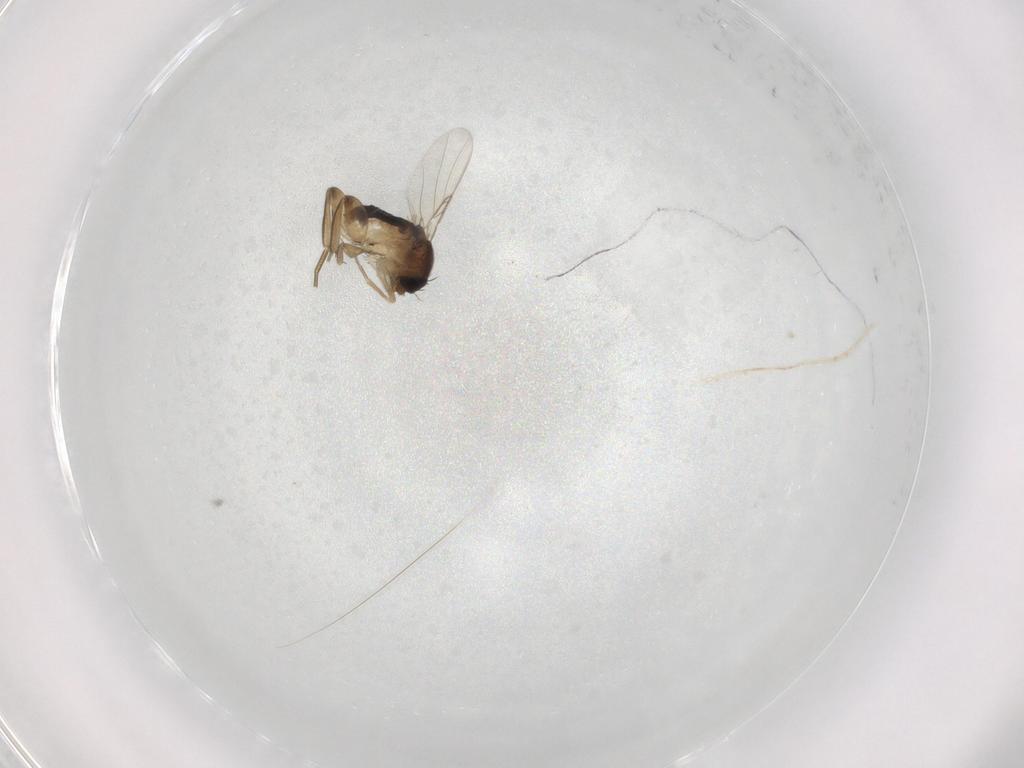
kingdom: Animalia
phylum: Arthropoda
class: Insecta
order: Diptera
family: Phoridae
